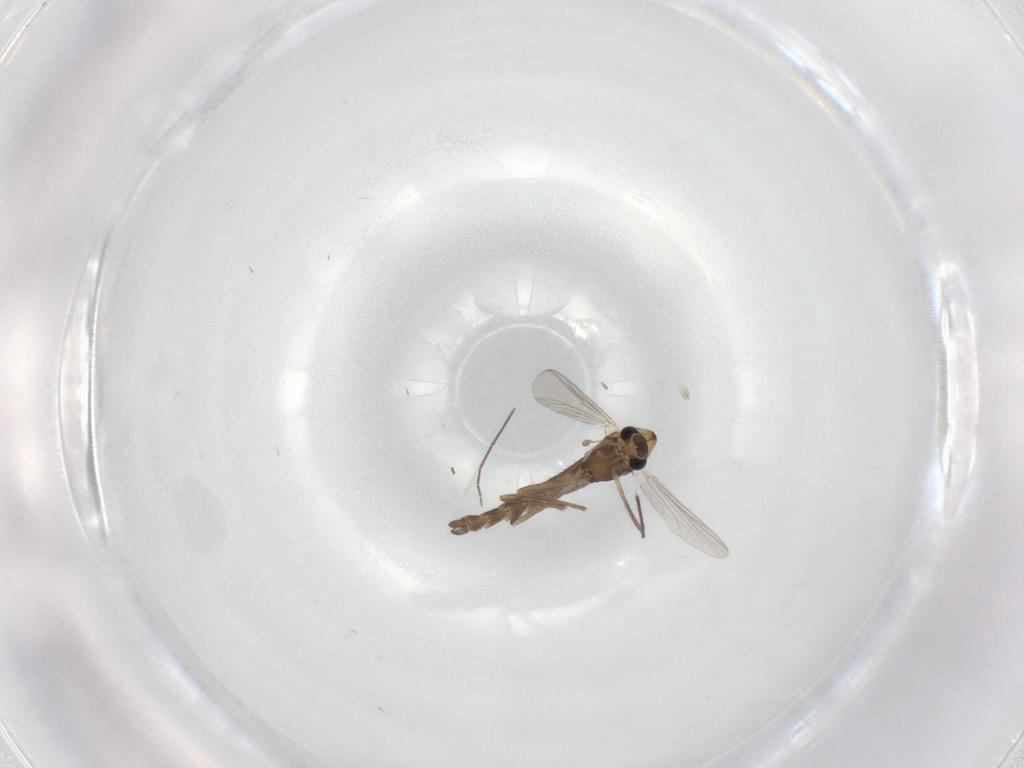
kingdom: Animalia
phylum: Arthropoda
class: Insecta
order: Diptera
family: Chironomidae
